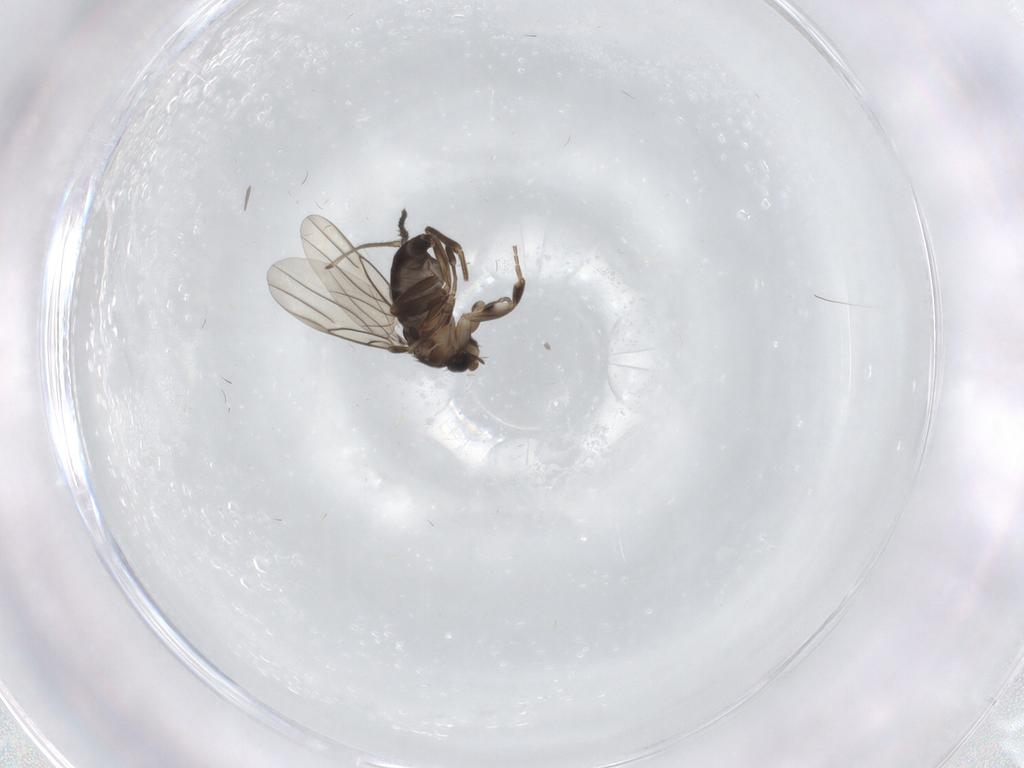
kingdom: Animalia
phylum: Arthropoda
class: Insecta
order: Diptera
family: Phoridae
